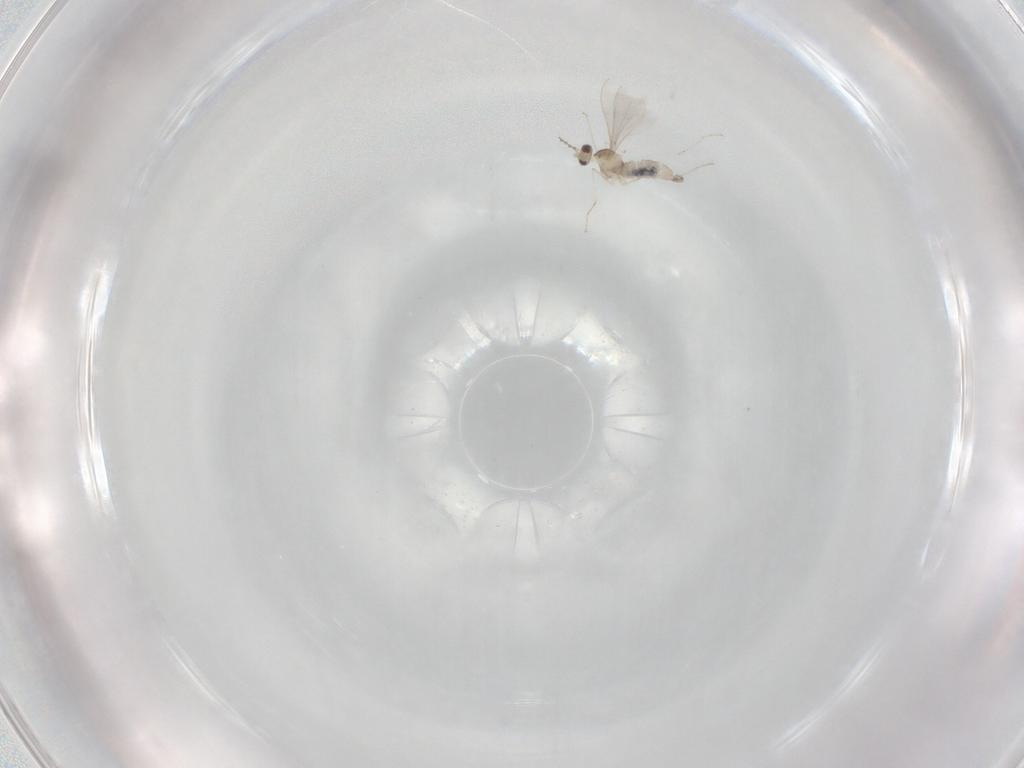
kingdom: Animalia
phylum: Arthropoda
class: Insecta
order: Diptera
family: Cecidomyiidae
